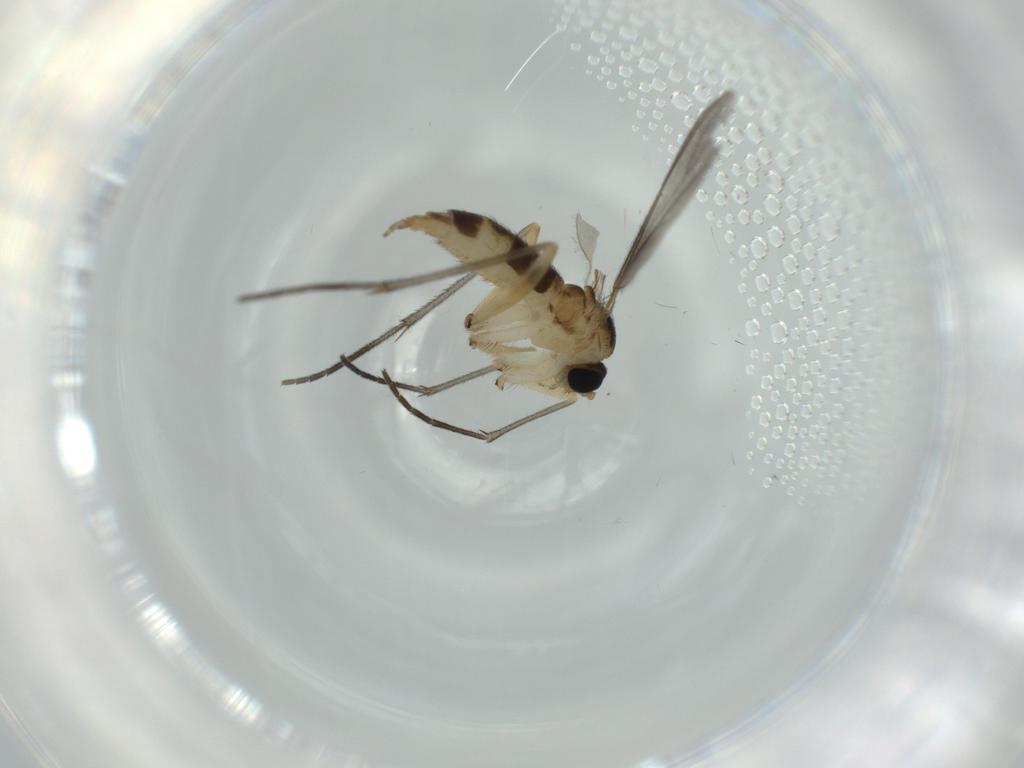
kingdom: Animalia
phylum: Arthropoda
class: Insecta
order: Diptera
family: Sciaridae
